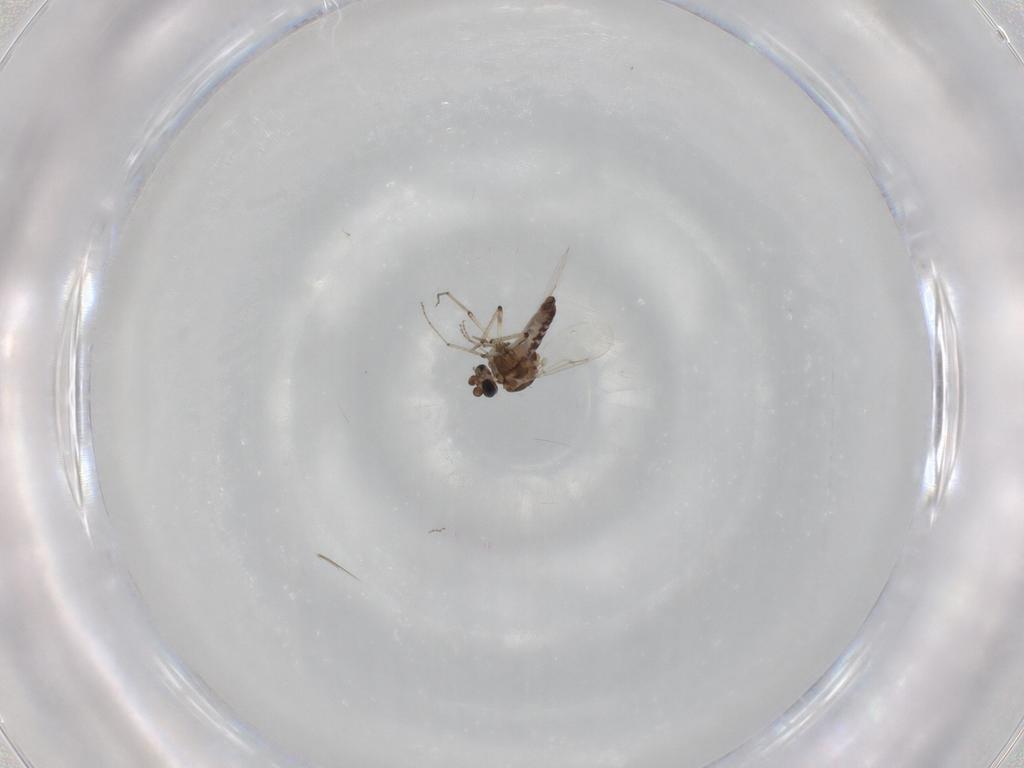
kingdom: Animalia
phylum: Arthropoda
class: Insecta
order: Diptera
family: Ceratopogonidae
